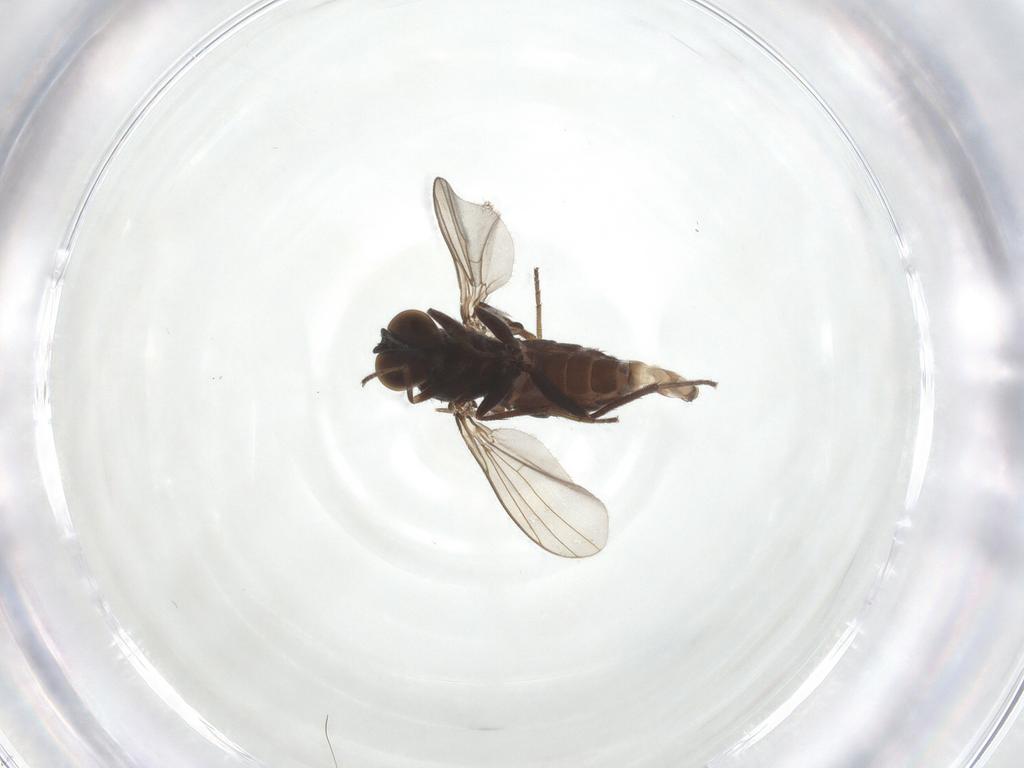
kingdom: Animalia
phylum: Arthropoda
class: Insecta
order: Diptera
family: Dolichopodidae
